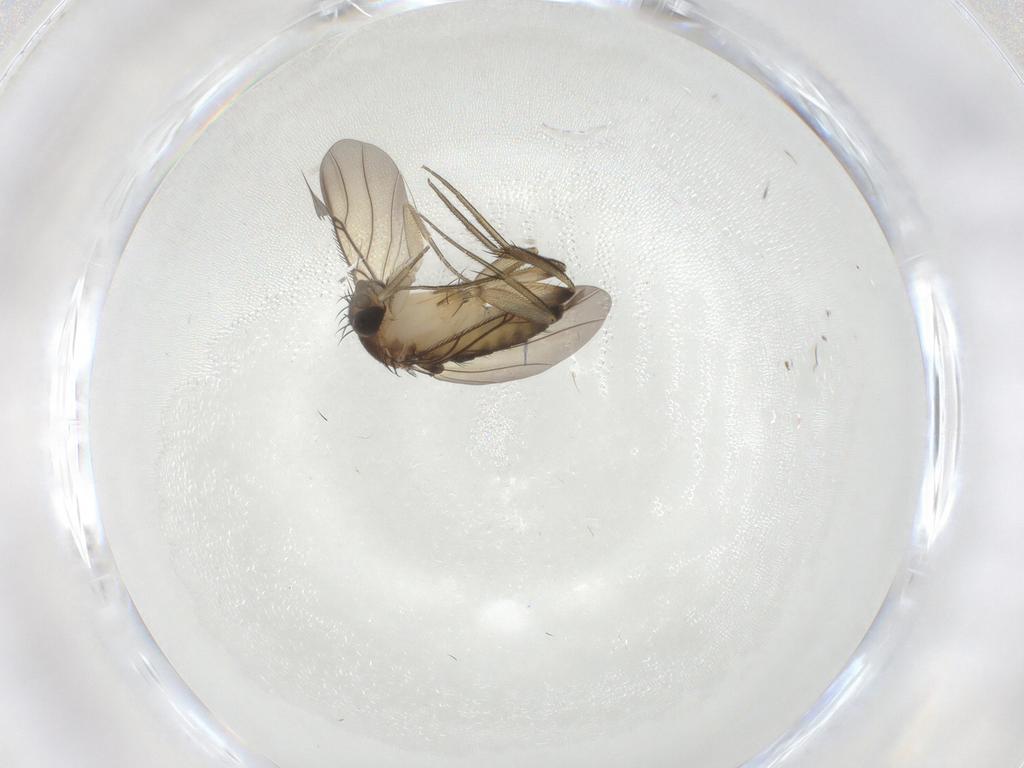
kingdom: Animalia
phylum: Arthropoda
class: Insecta
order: Diptera
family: Phoridae
